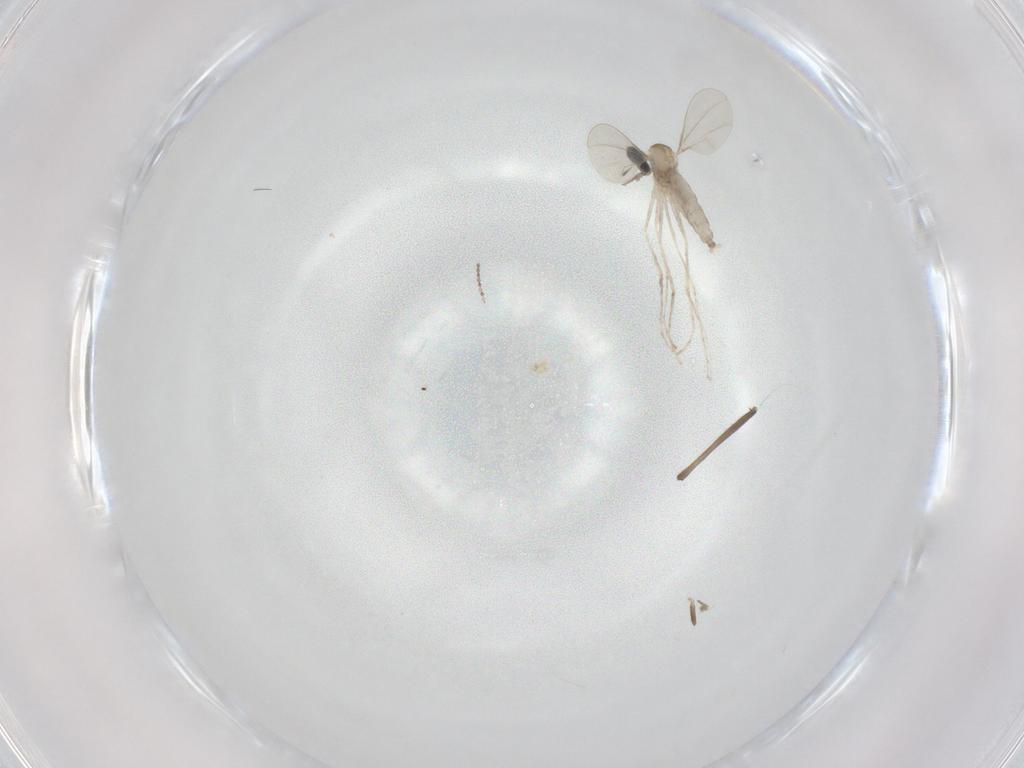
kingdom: Animalia
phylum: Arthropoda
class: Insecta
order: Diptera
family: Cecidomyiidae
